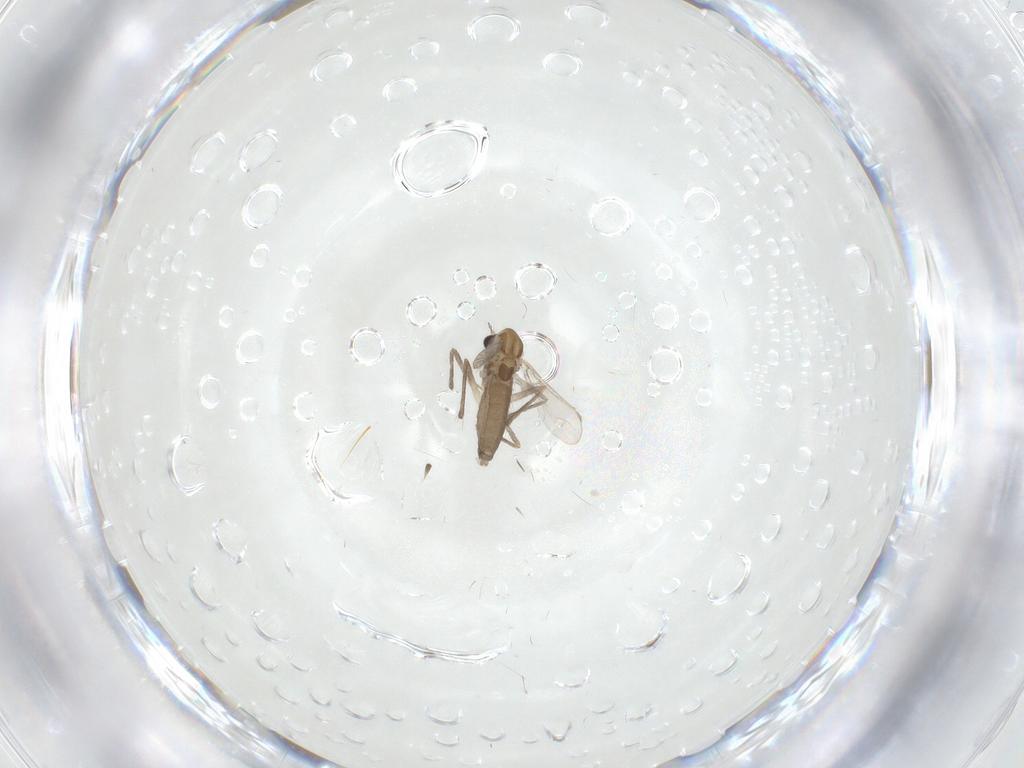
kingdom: Animalia
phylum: Arthropoda
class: Insecta
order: Diptera
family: Chironomidae
